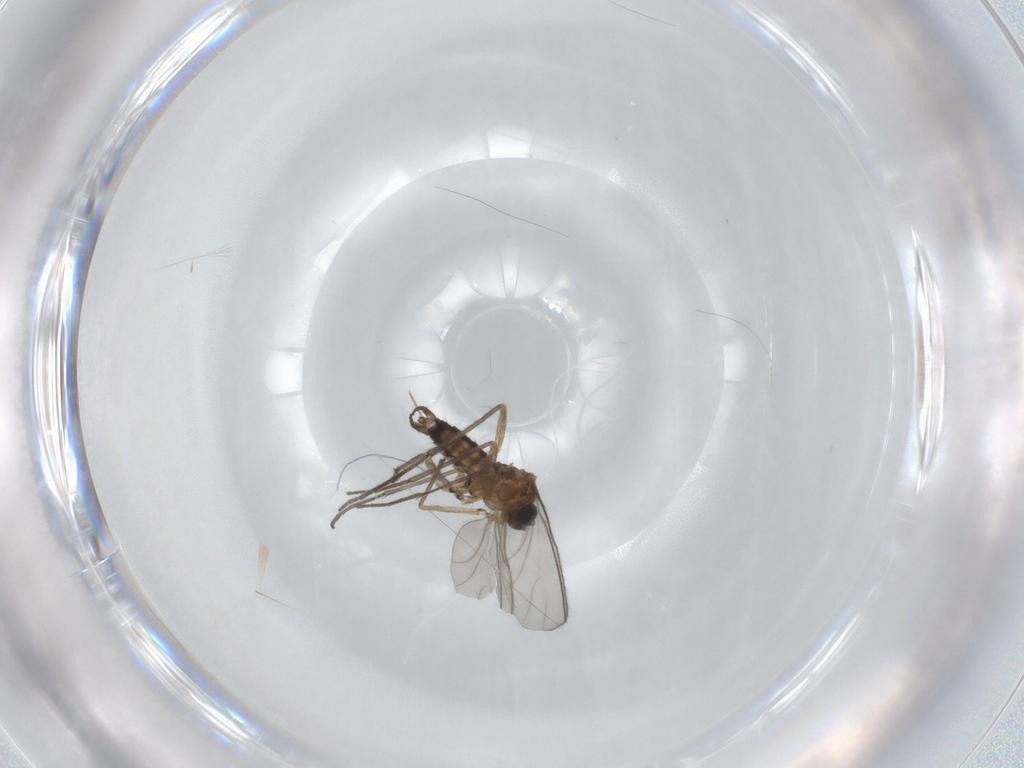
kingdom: Animalia
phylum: Arthropoda
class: Insecta
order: Diptera
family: Sciaridae
